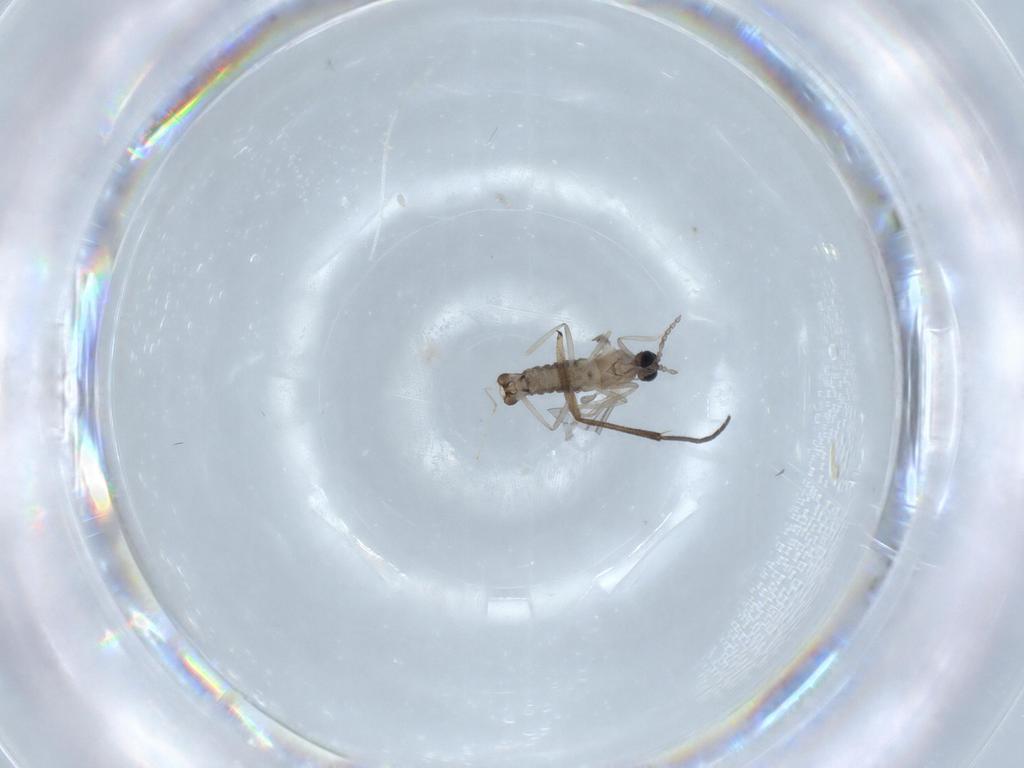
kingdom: Animalia
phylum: Arthropoda
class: Insecta
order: Diptera
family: Cecidomyiidae
